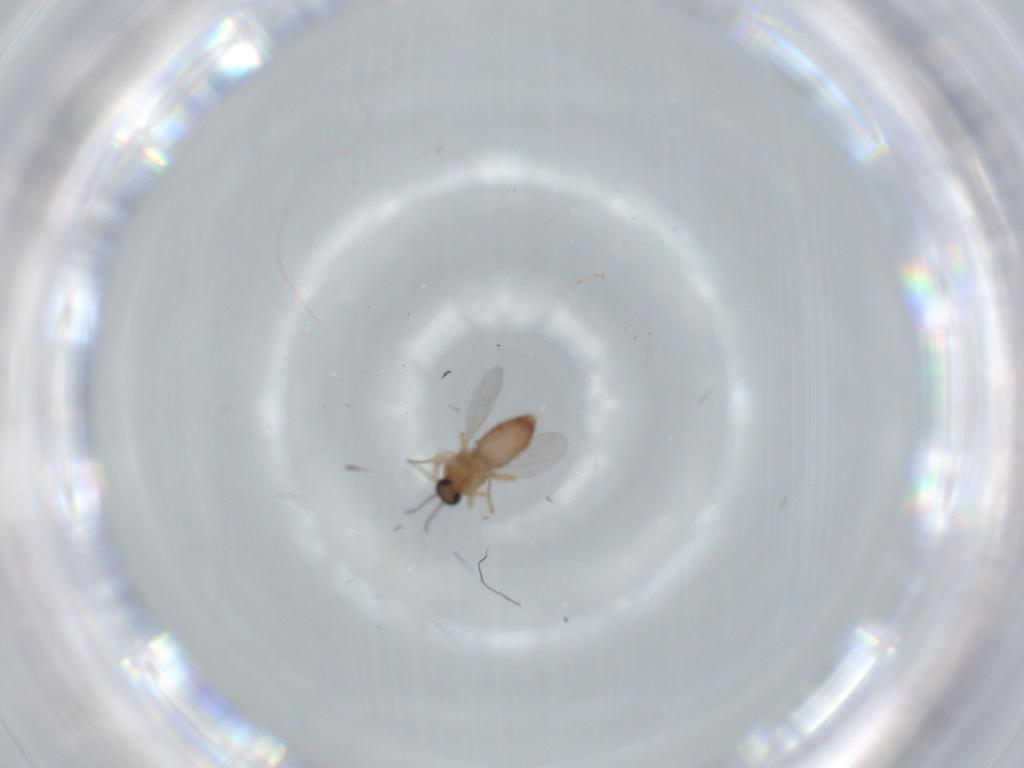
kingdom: Animalia
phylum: Arthropoda
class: Insecta
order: Diptera
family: Ceratopogonidae
